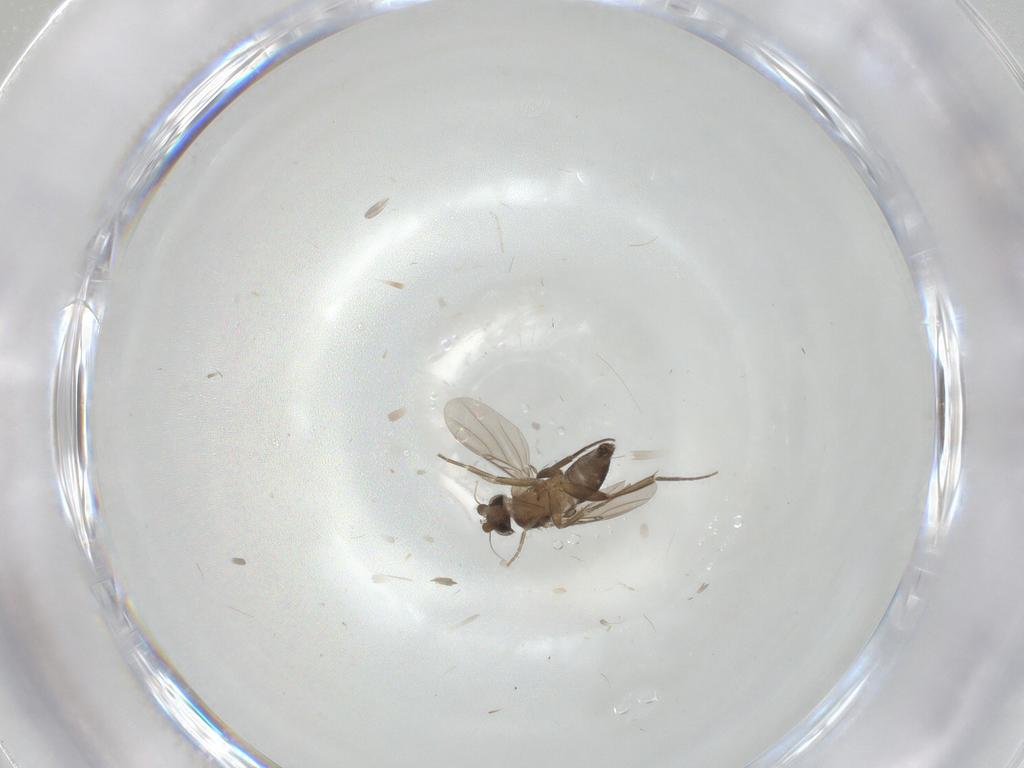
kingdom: Animalia
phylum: Arthropoda
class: Insecta
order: Lepidoptera
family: Gracillariidae
